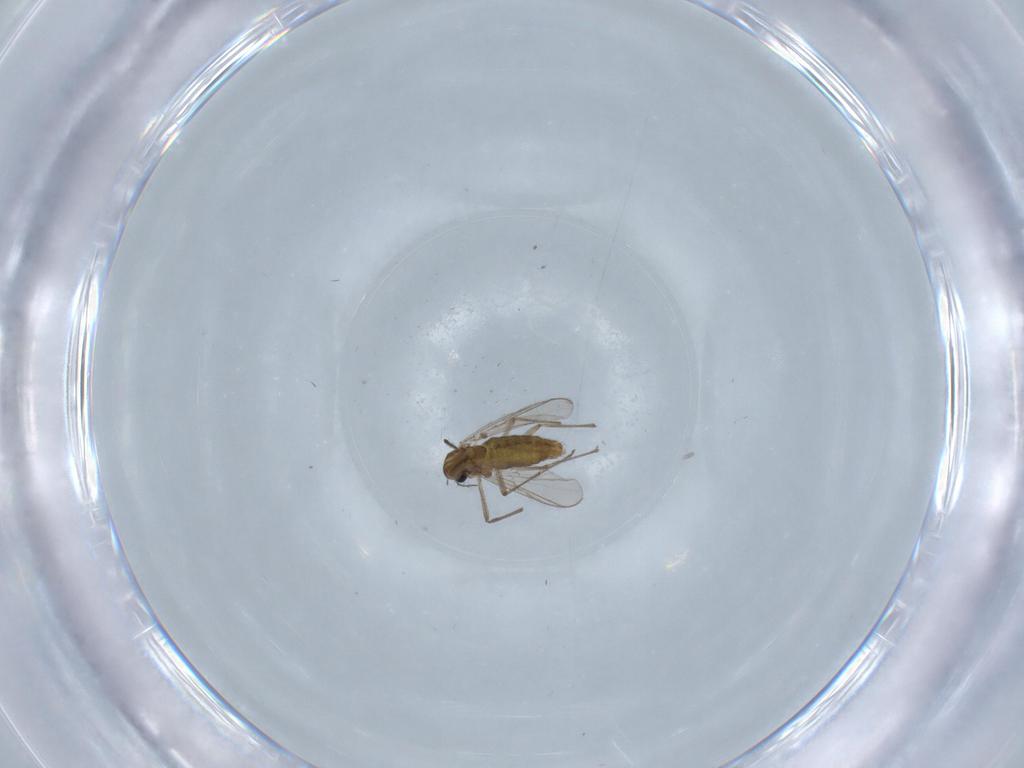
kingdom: Animalia
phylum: Arthropoda
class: Insecta
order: Diptera
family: Chironomidae
